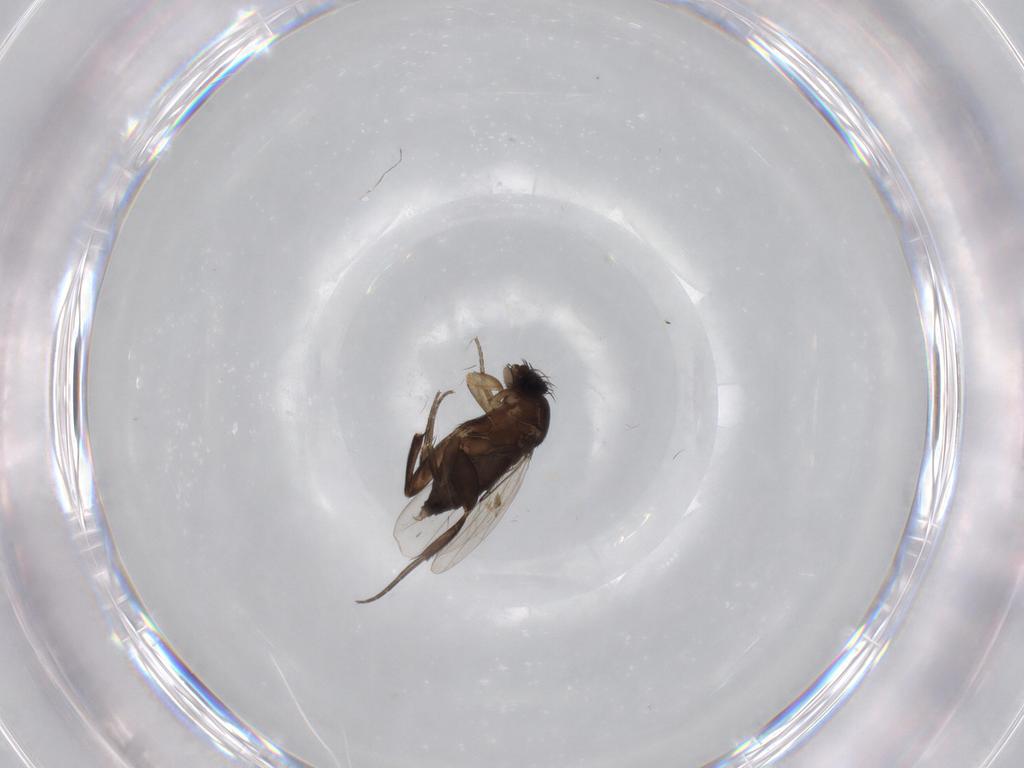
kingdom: Animalia
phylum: Arthropoda
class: Insecta
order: Diptera
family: Phoridae
